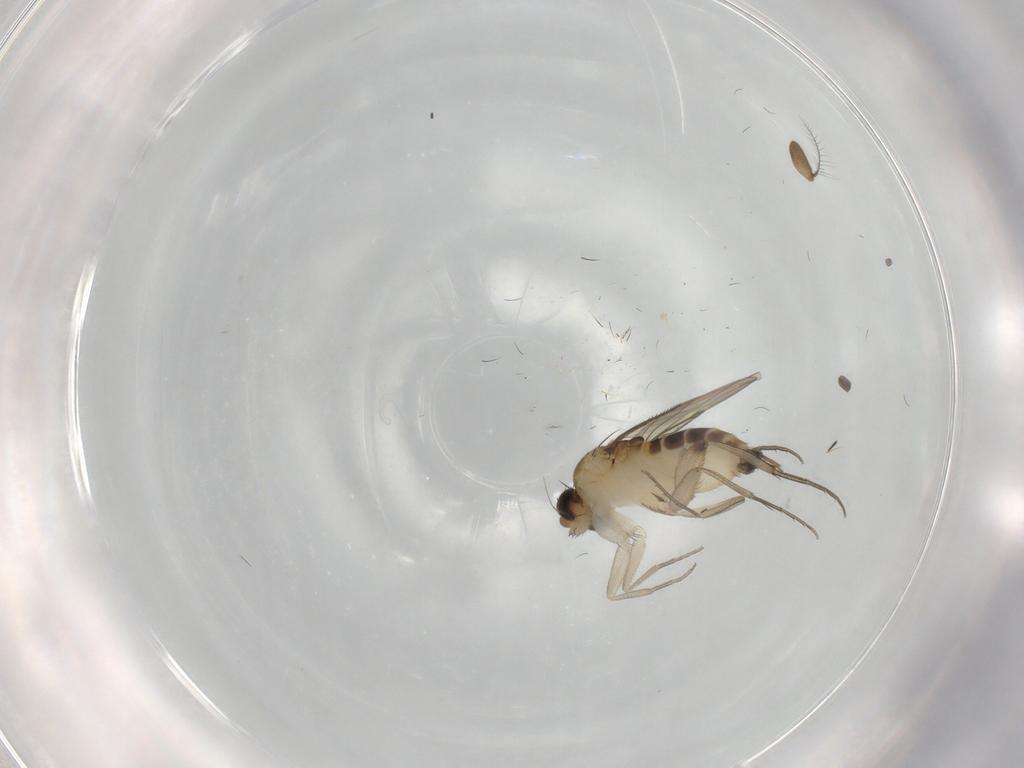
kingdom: Animalia
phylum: Arthropoda
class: Insecta
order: Diptera
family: Phoridae
